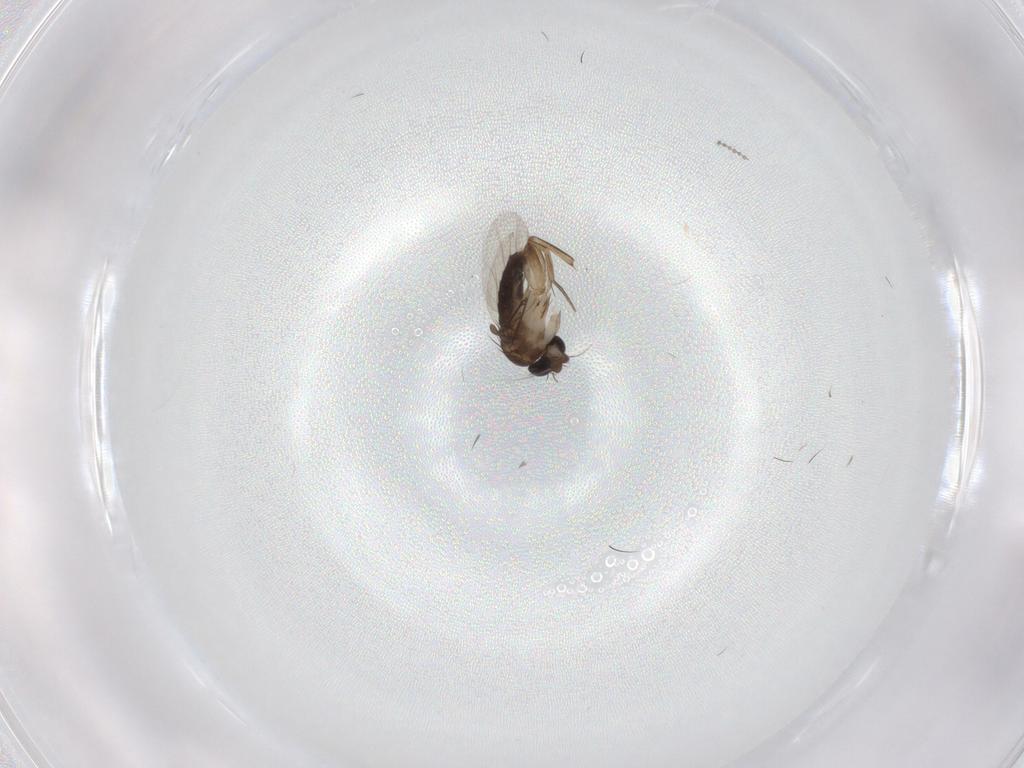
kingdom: Animalia
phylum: Arthropoda
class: Insecta
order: Diptera
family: Phoridae
